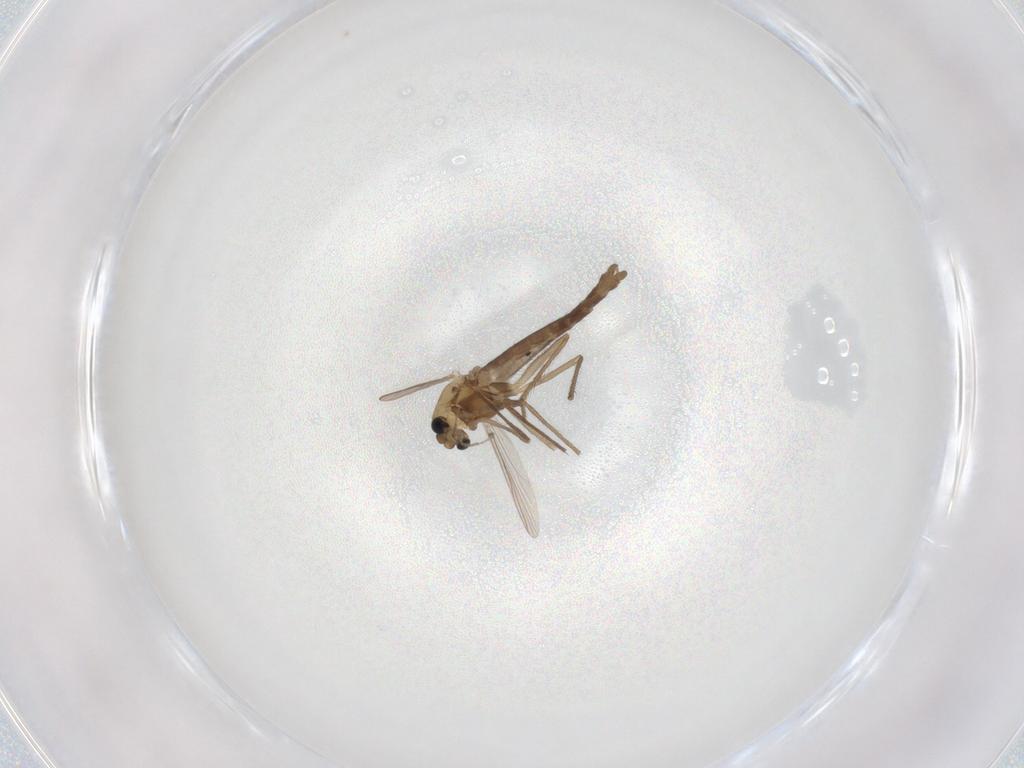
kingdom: Animalia
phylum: Arthropoda
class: Insecta
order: Diptera
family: Chironomidae
